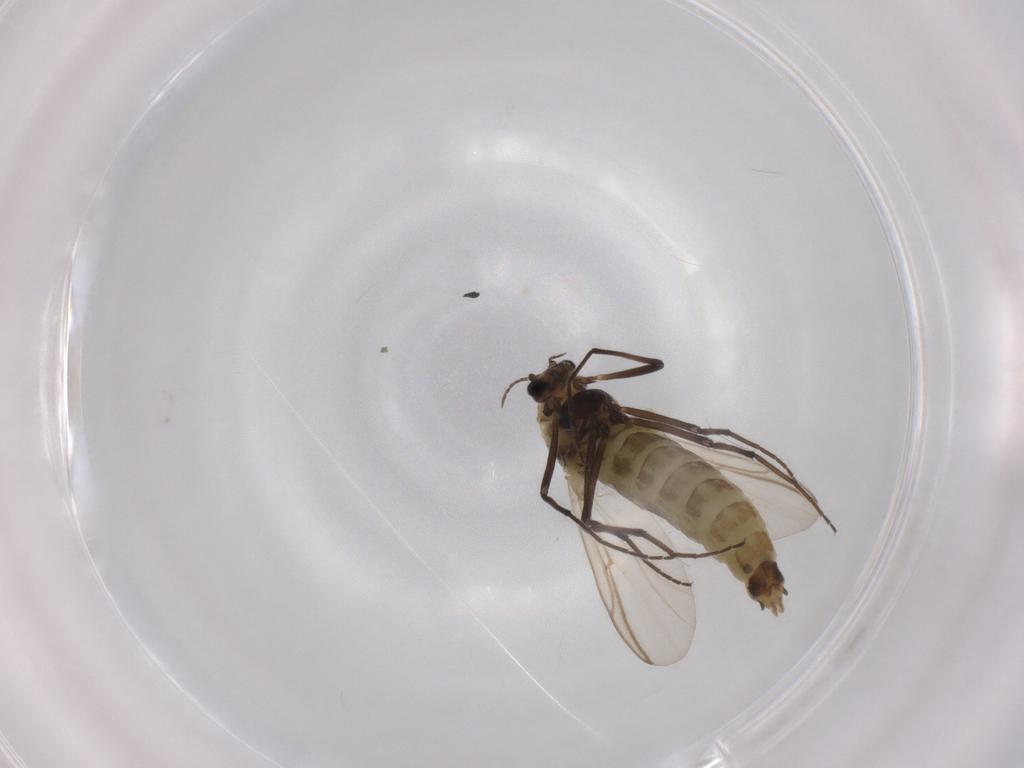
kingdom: Animalia
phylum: Arthropoda
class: Insecta
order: Diptera
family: Chironomidae
